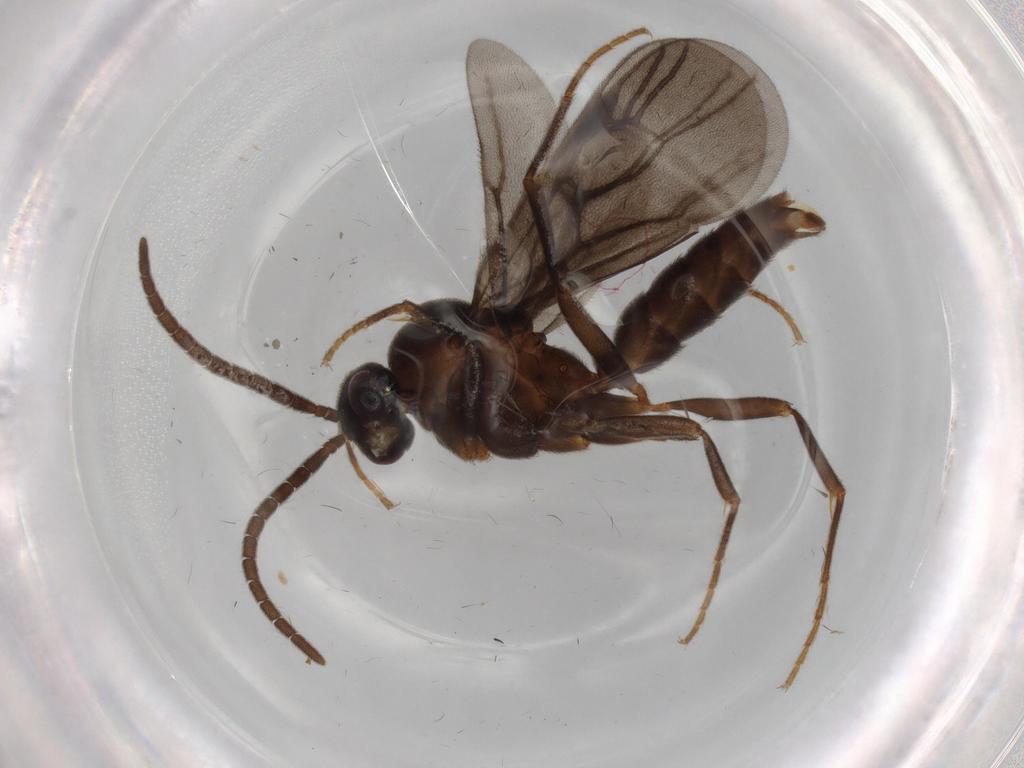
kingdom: Animalia
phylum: Arthropoda
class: Insecta
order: Hymenoptera
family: Formicidae
